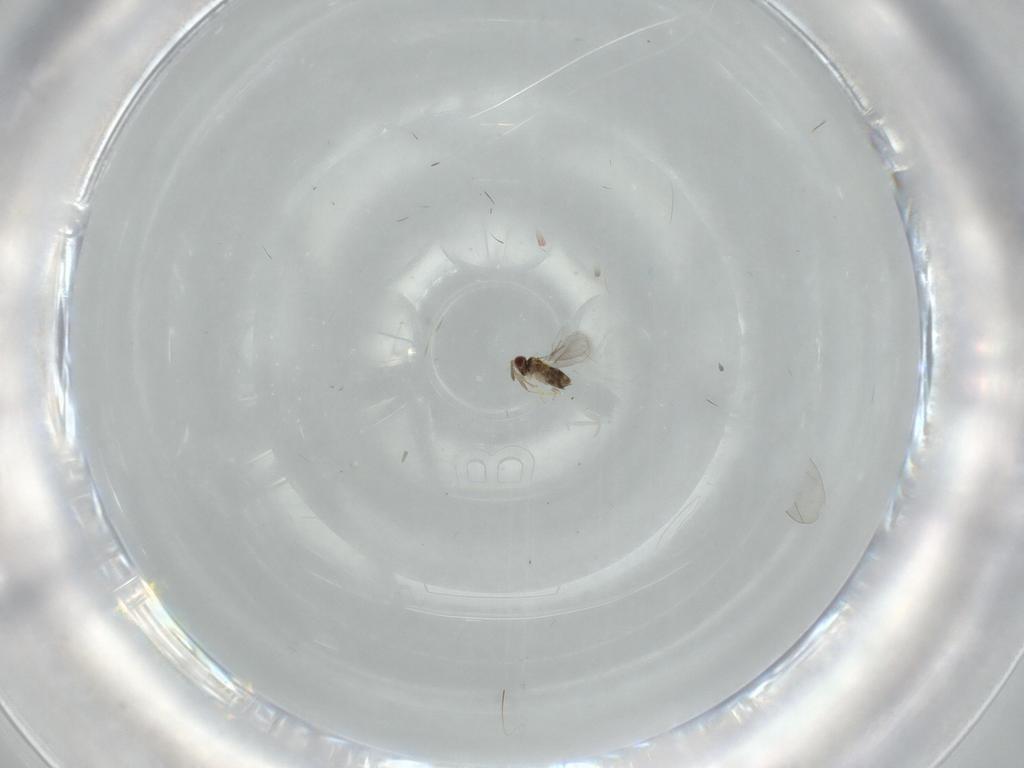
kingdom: Animalia
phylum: Arthropoda
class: Insecta
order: Hymenoptera
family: Aphelinidae
